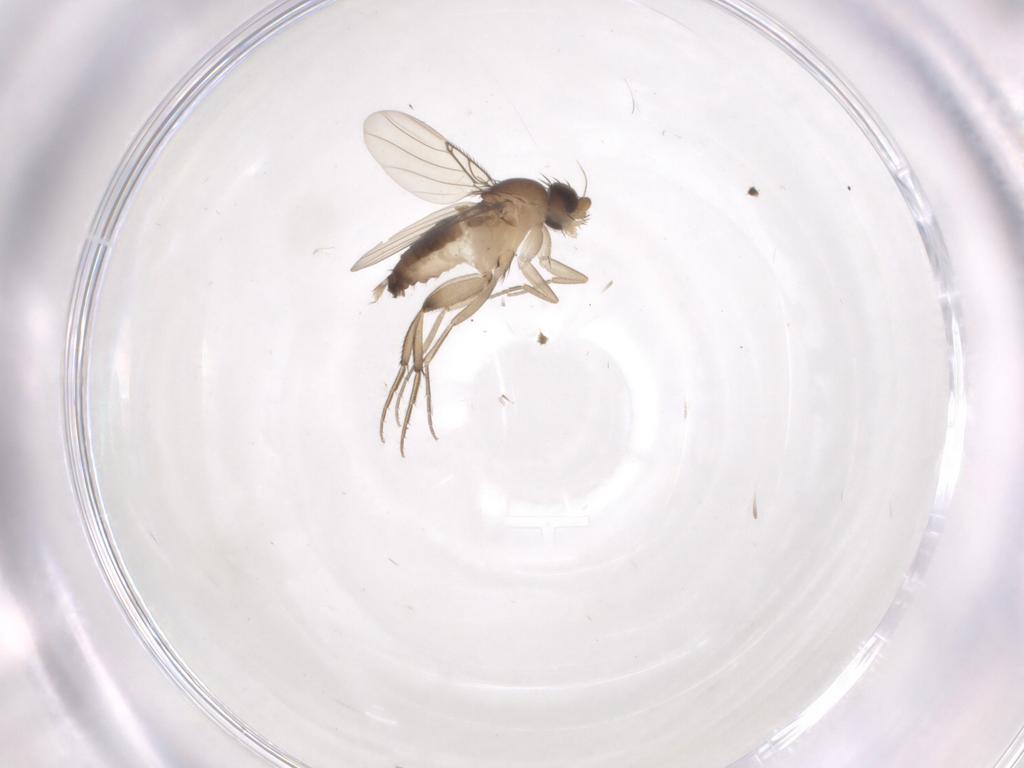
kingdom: Animalia
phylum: Arthropoda
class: Insecta
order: Diptera
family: Phoridae
